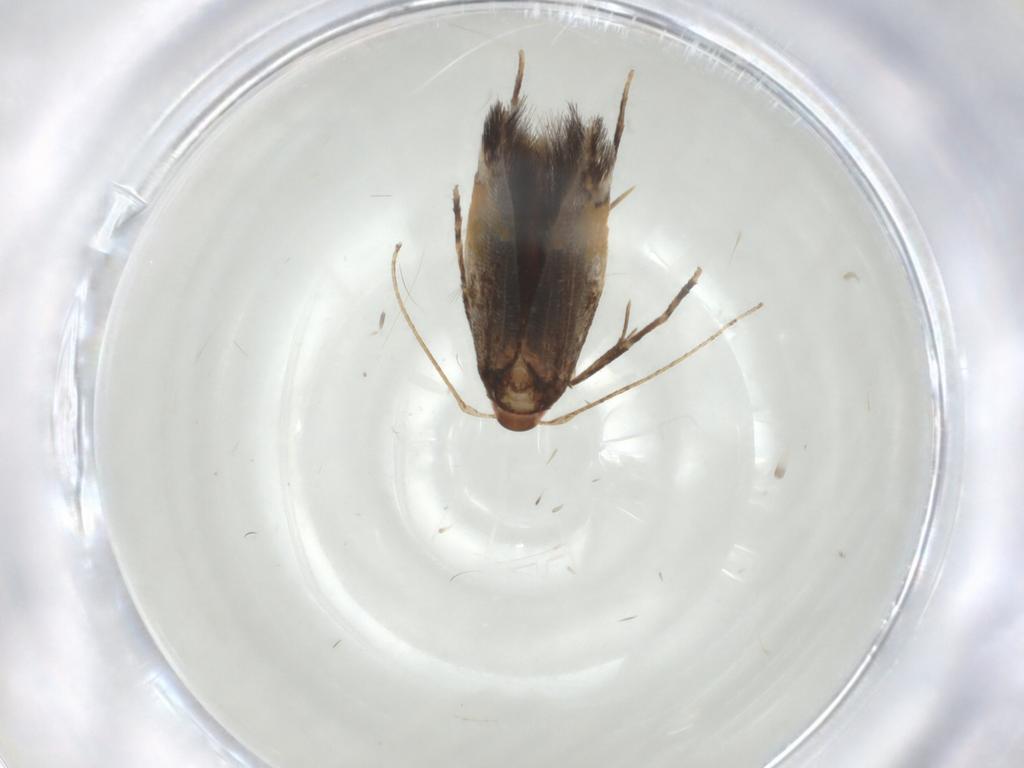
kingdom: Animalia
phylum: Arthropoda
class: Insecta
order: Lepidoptera
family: Cosmopterigidae
